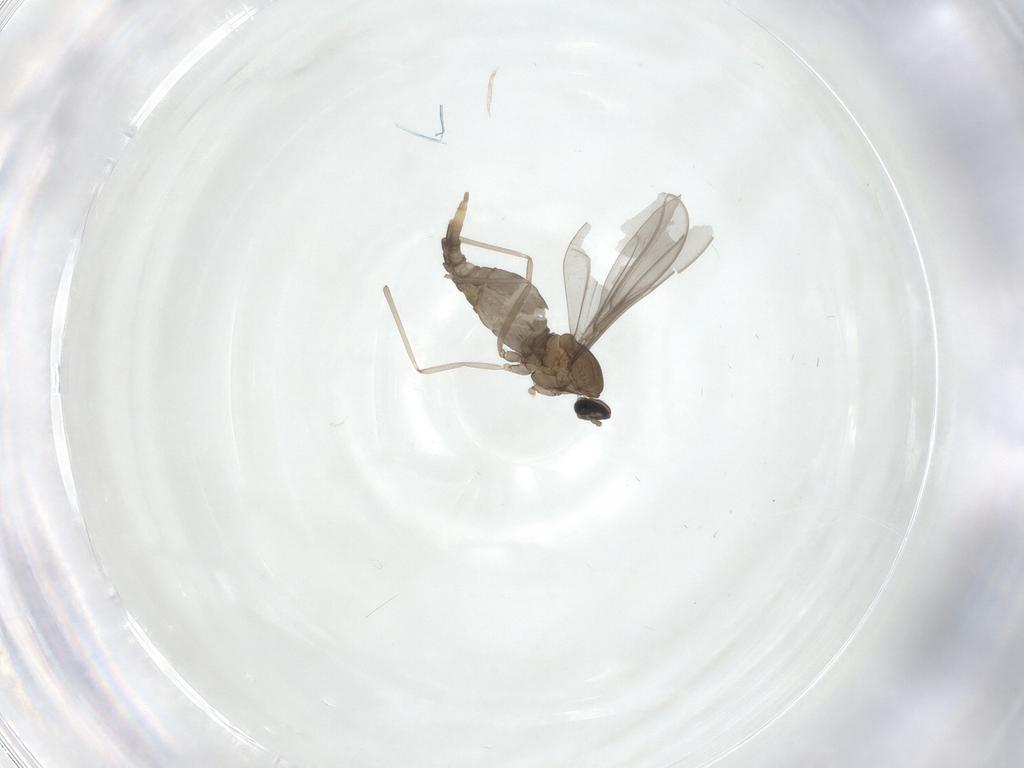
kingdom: Animalia
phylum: Arthropoda
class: Insecta
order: Diptera
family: Cecidomyiidae
